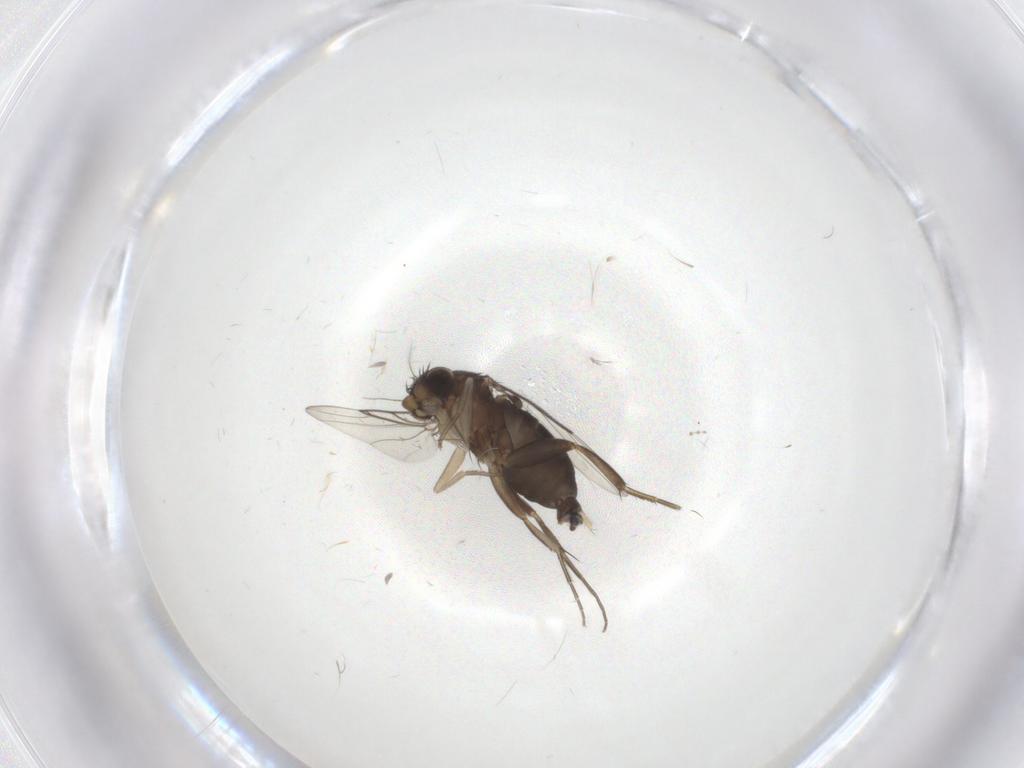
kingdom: Animalia
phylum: Arthropoda
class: Insecta
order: Diptera
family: Phoridae
